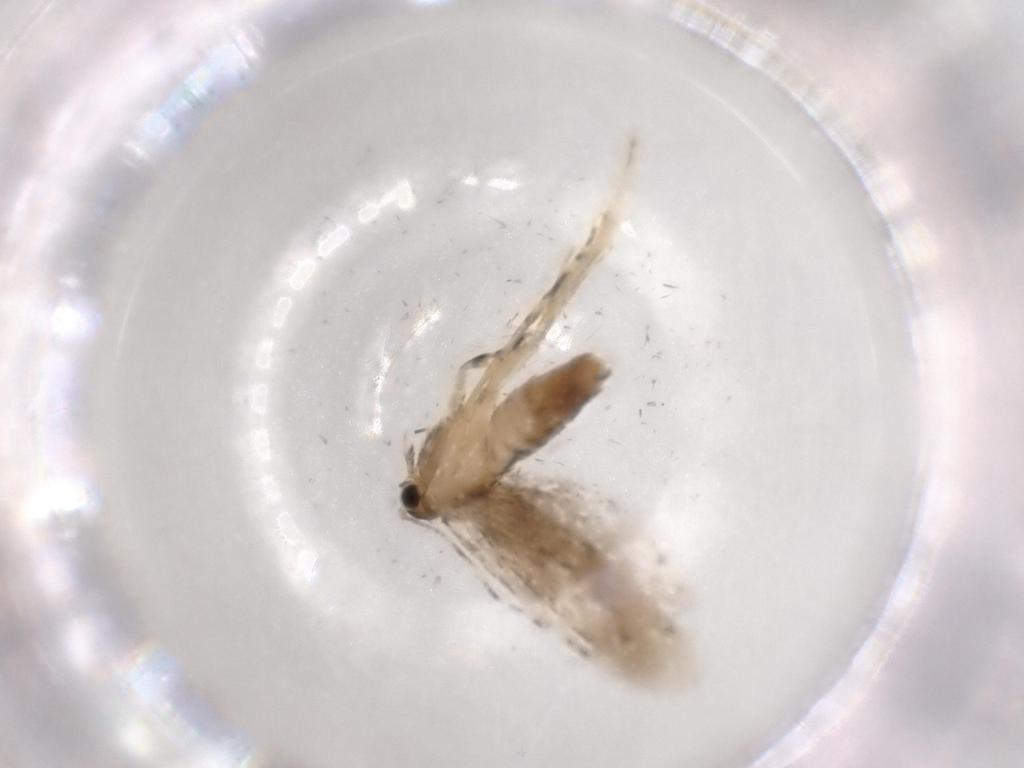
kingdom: Animalia
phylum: Arthropoda
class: Insecta
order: Lepidoptera
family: Tineidae
